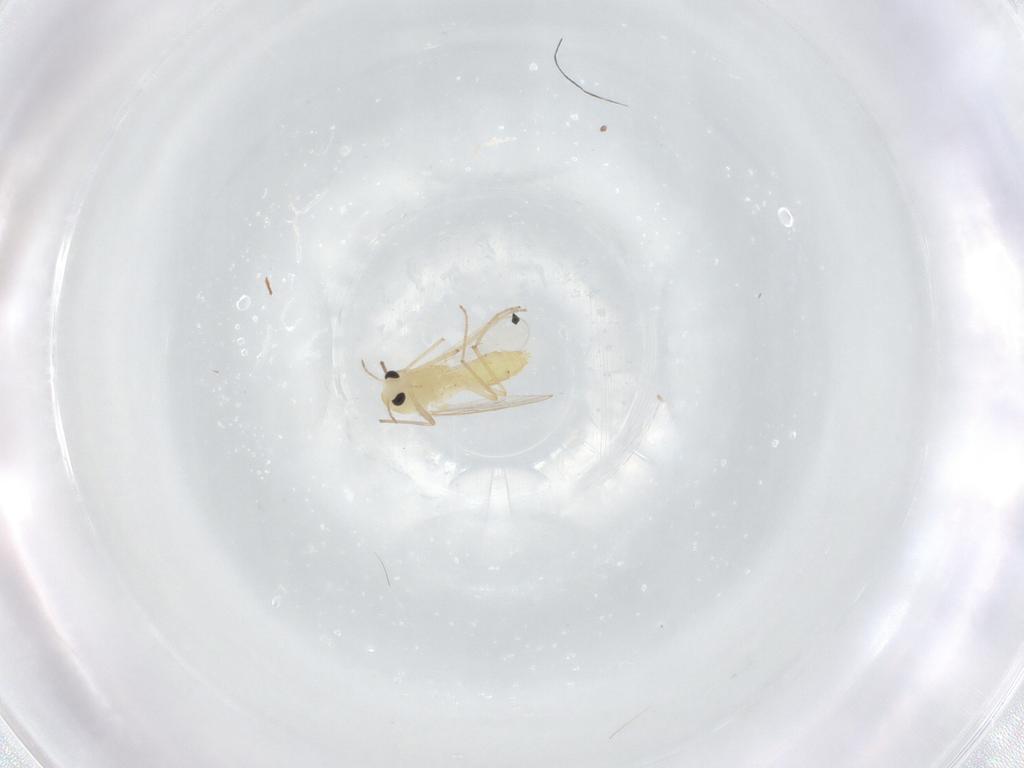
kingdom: Animalia
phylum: Arthropoda
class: Insecta
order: Diptera
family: Chironomidae
